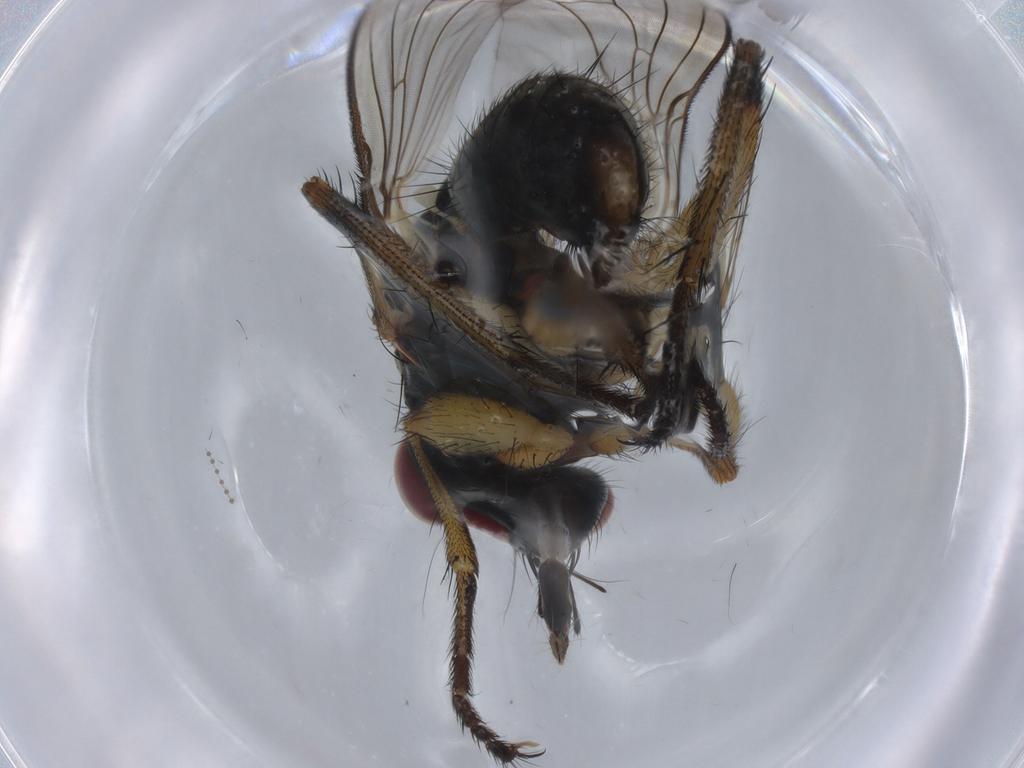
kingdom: Animalia
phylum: Arthropoda
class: Insecta
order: Diptera
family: Muscidae
